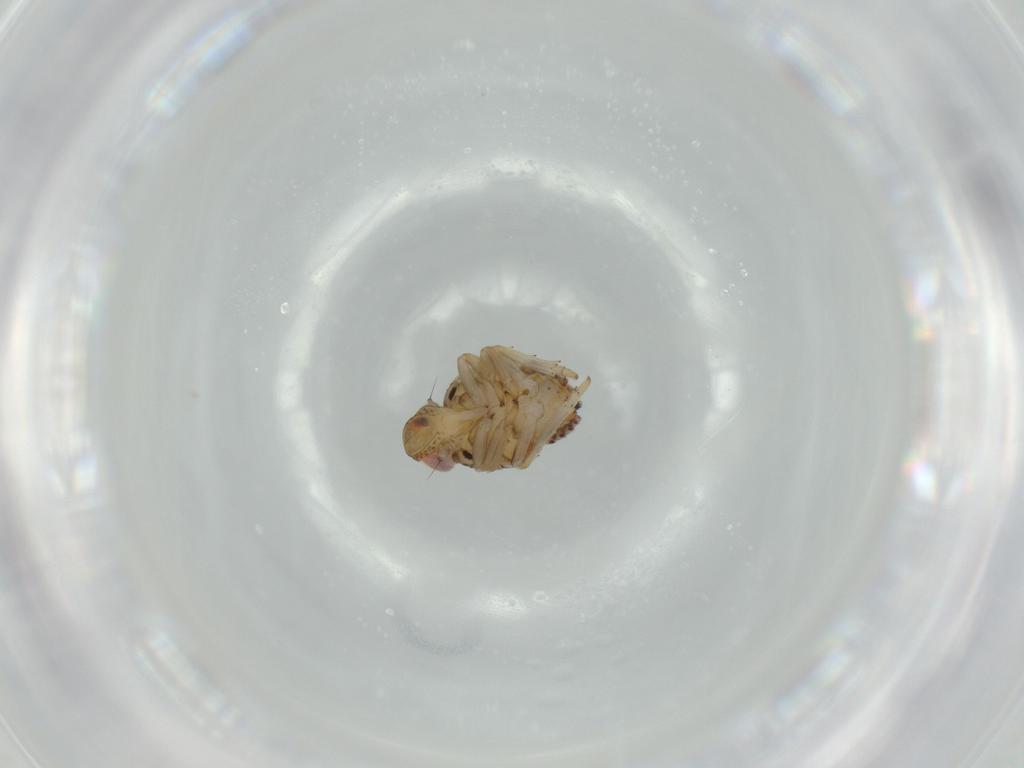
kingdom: Animalia
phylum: Arthropoda
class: Insecta
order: Hemiptera
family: Issidae
